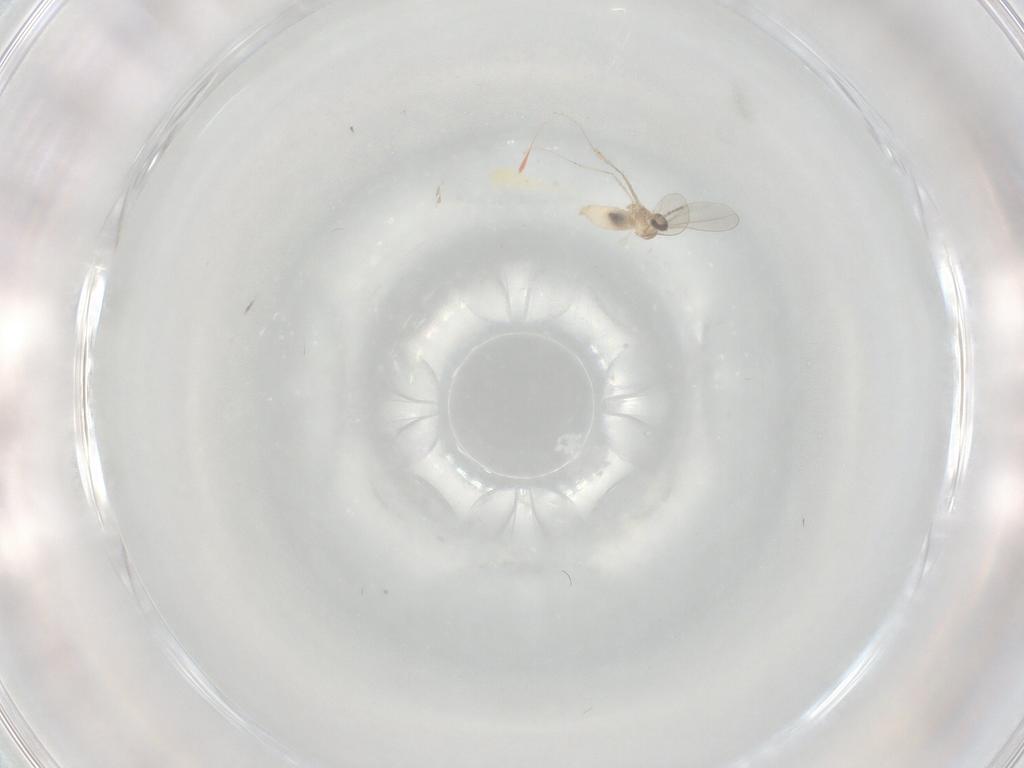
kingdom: Animalia
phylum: Arthropoda
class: Insecta
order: Diptera
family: Cecidomyiidae
